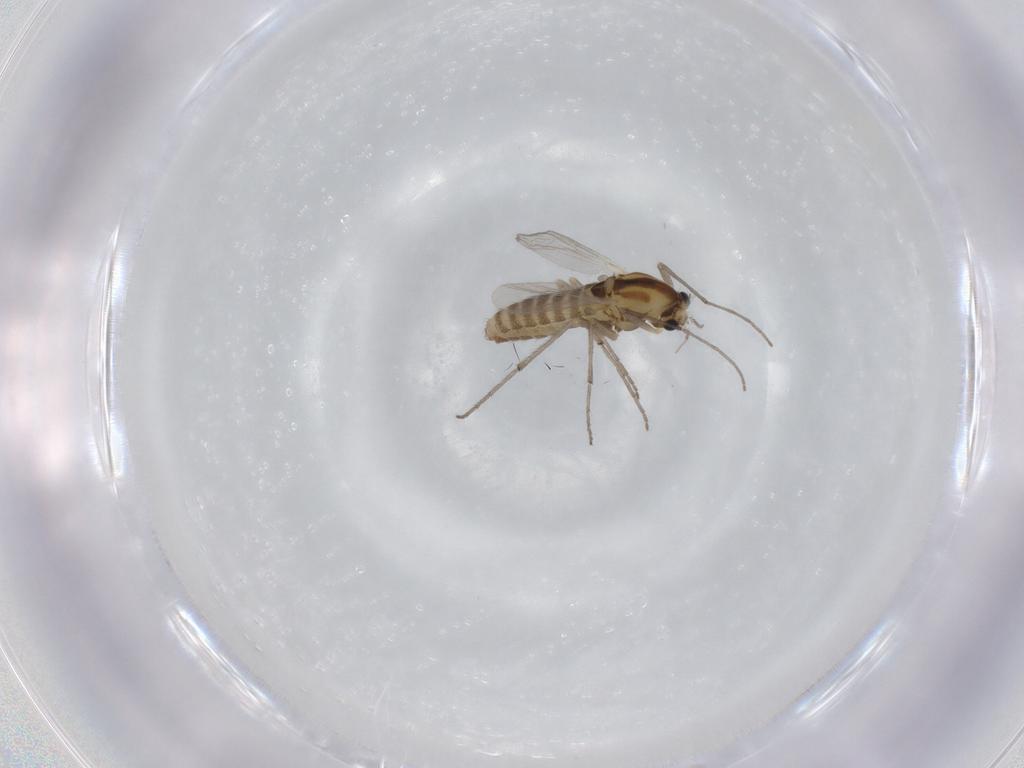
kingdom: Animalia
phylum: Arthropoda
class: Insecta
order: Diptera
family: Chironomidae
